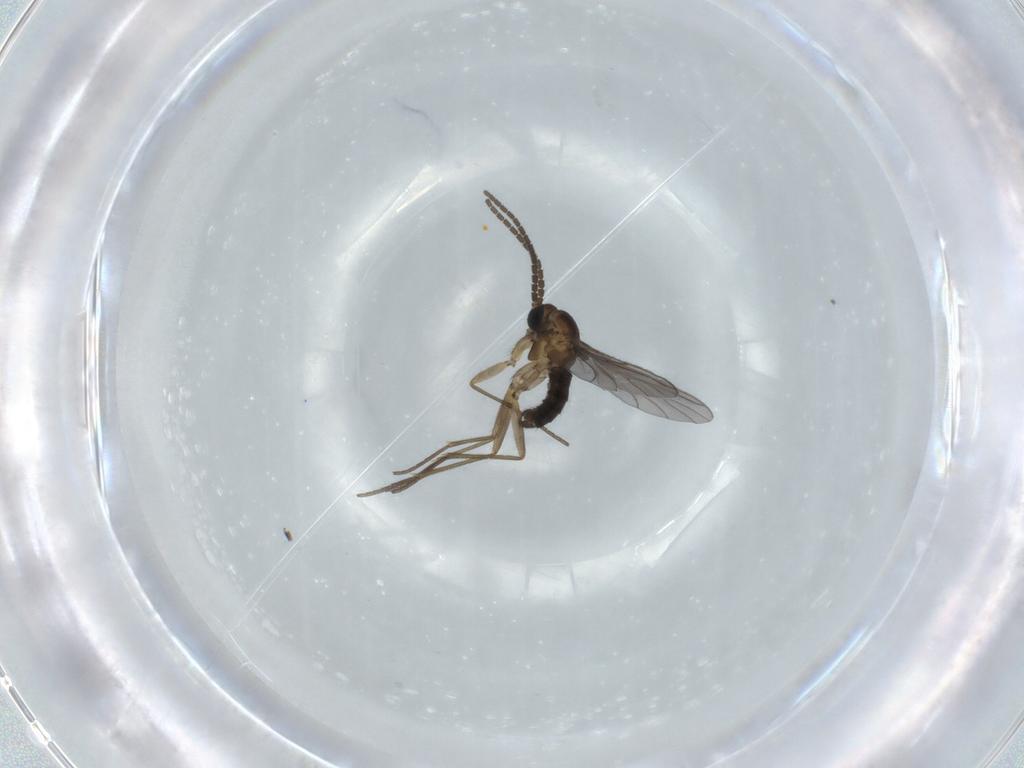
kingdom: Animalia
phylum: Arthropoda
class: Insecta
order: Diptera
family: Sciaridae
